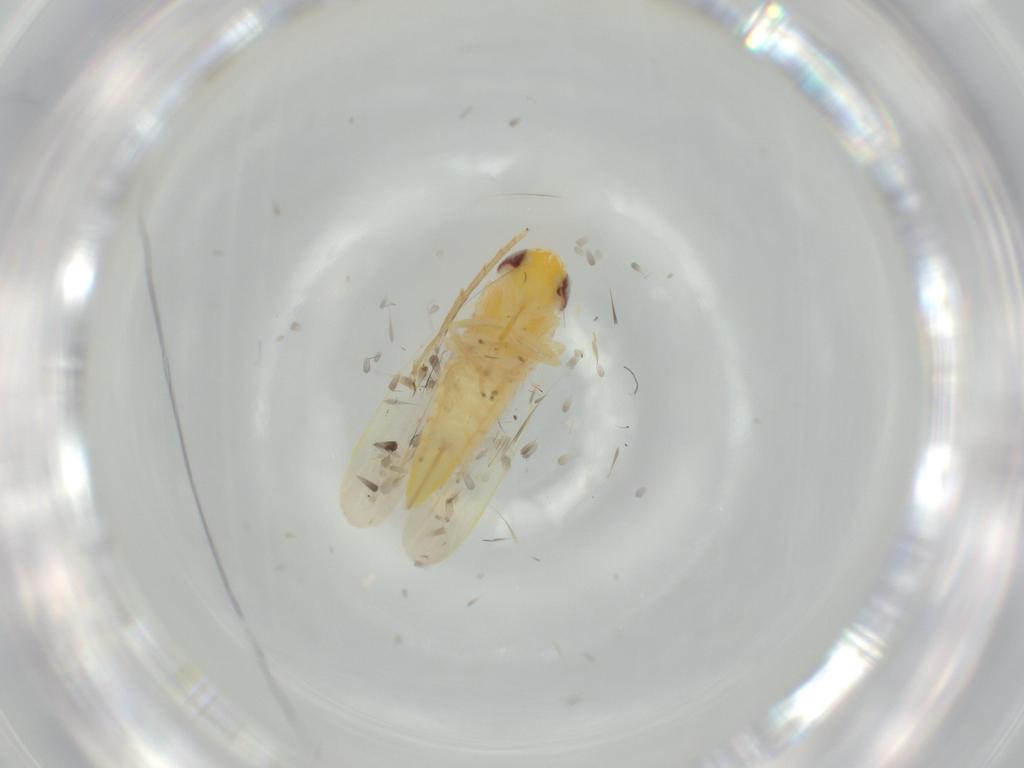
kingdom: Animalia
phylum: Arthropoda
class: Insecta
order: Hemiptera
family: Cicadellidae
